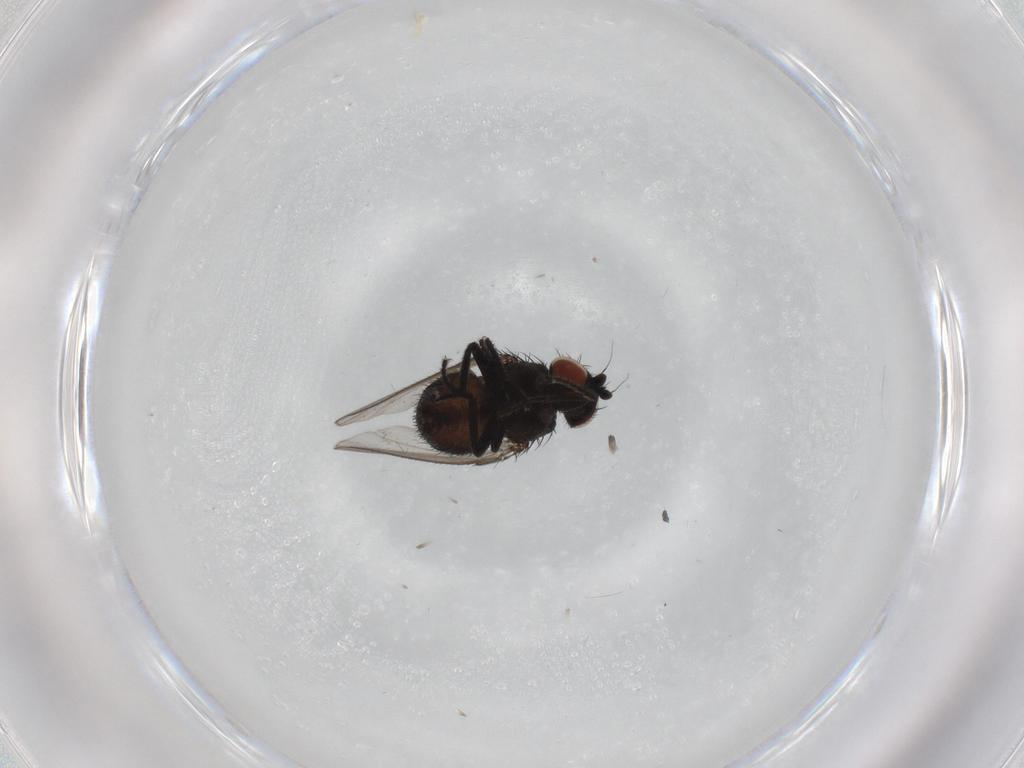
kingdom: Animalia
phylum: Arthropoda
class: Insecta
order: Diptera
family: Milichiidae
